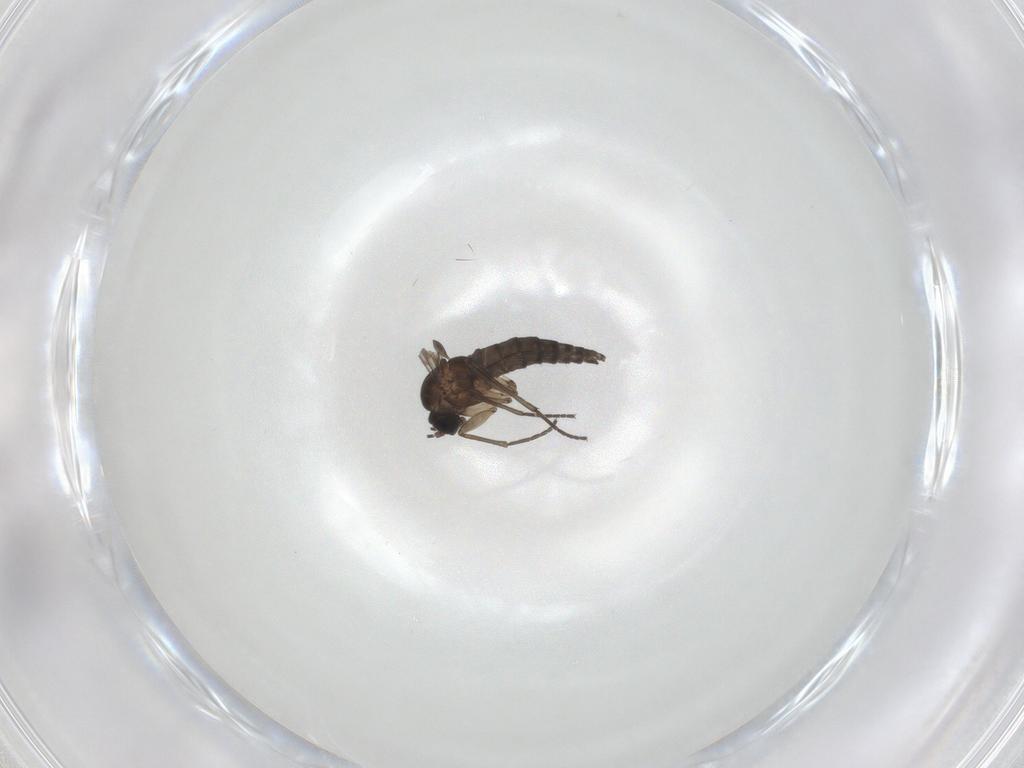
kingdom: Animalia
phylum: Arthropoda
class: Insecta
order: Diptera
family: Sciaridae
